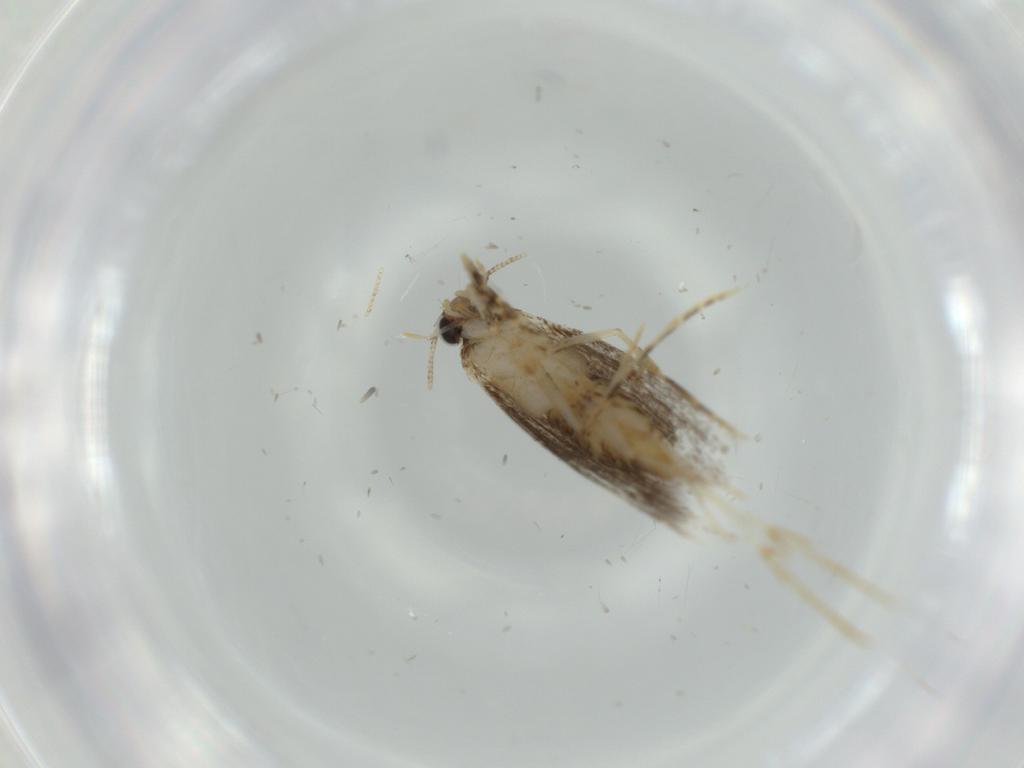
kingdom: Animalia
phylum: Arthropoda
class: Insecta
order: Lepidoptera
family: Tineidae
